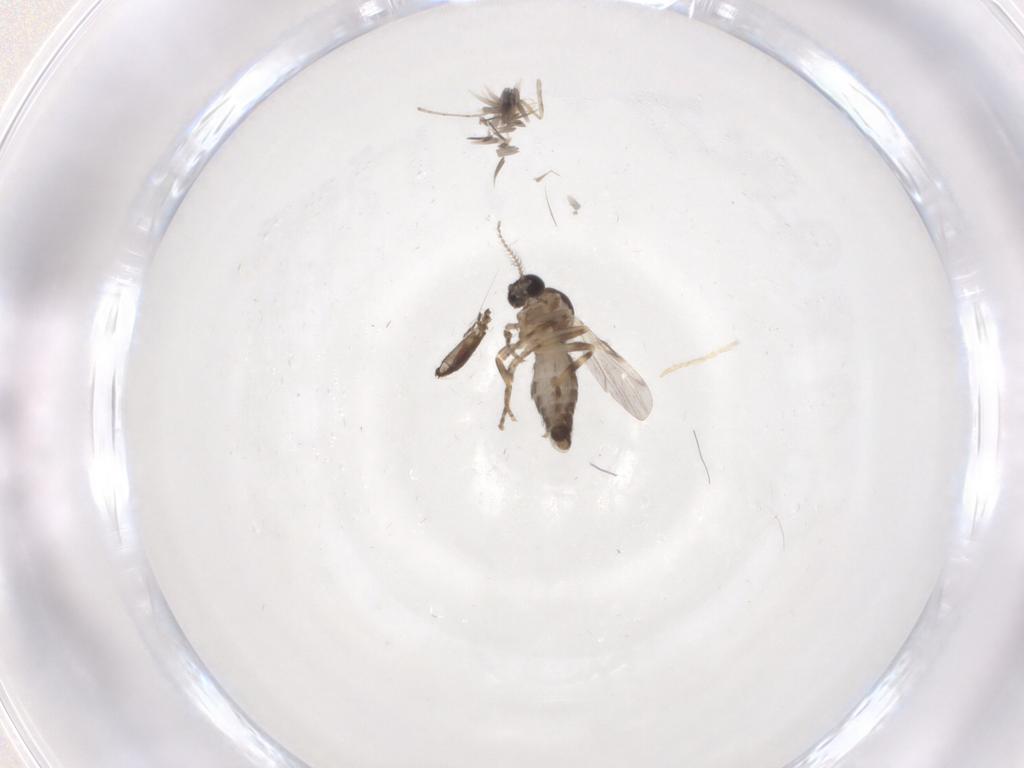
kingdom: Animalia
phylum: Arthropoda
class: Insecta
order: Diptera
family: Ceratopogonidae
